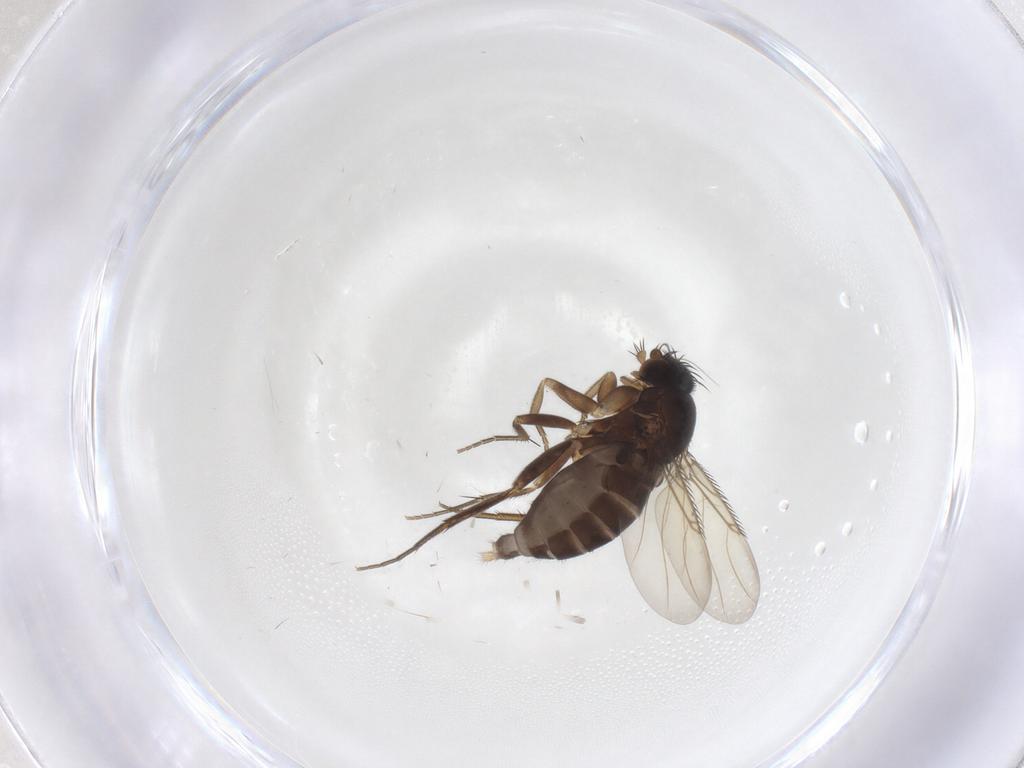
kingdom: Animalia
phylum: Arthropoda
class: Insecta
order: Diptera
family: Phoridae
